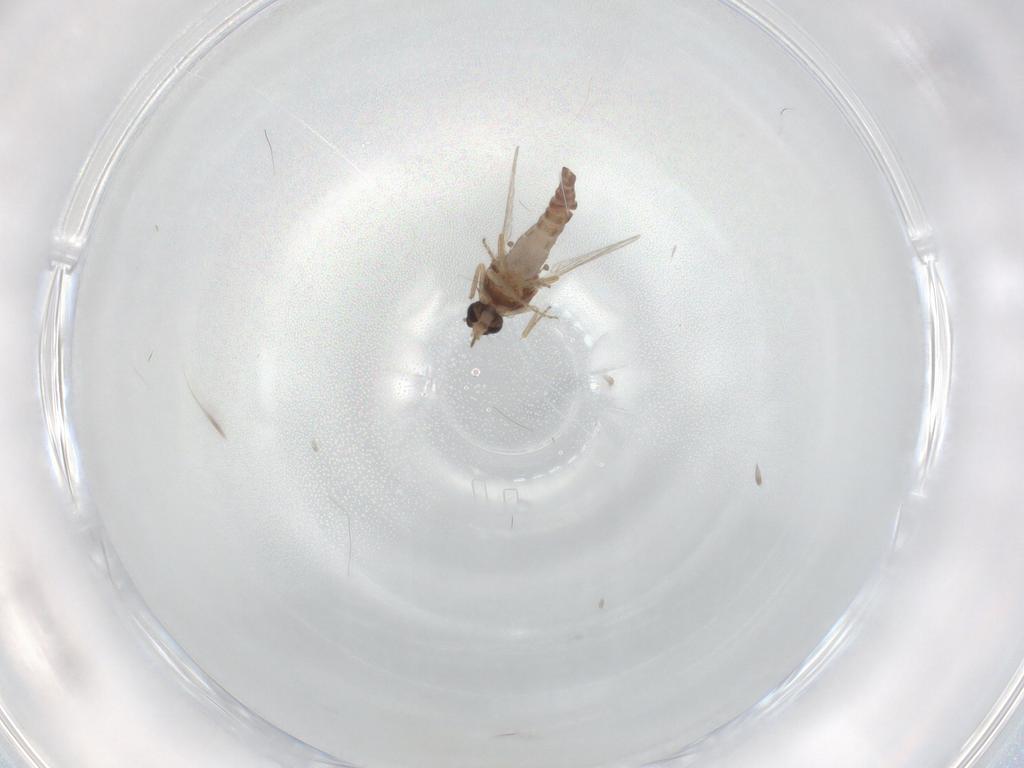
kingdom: Animalia
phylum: Arthropoda
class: Insecta
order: Diptera
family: Ceratopogonidae
